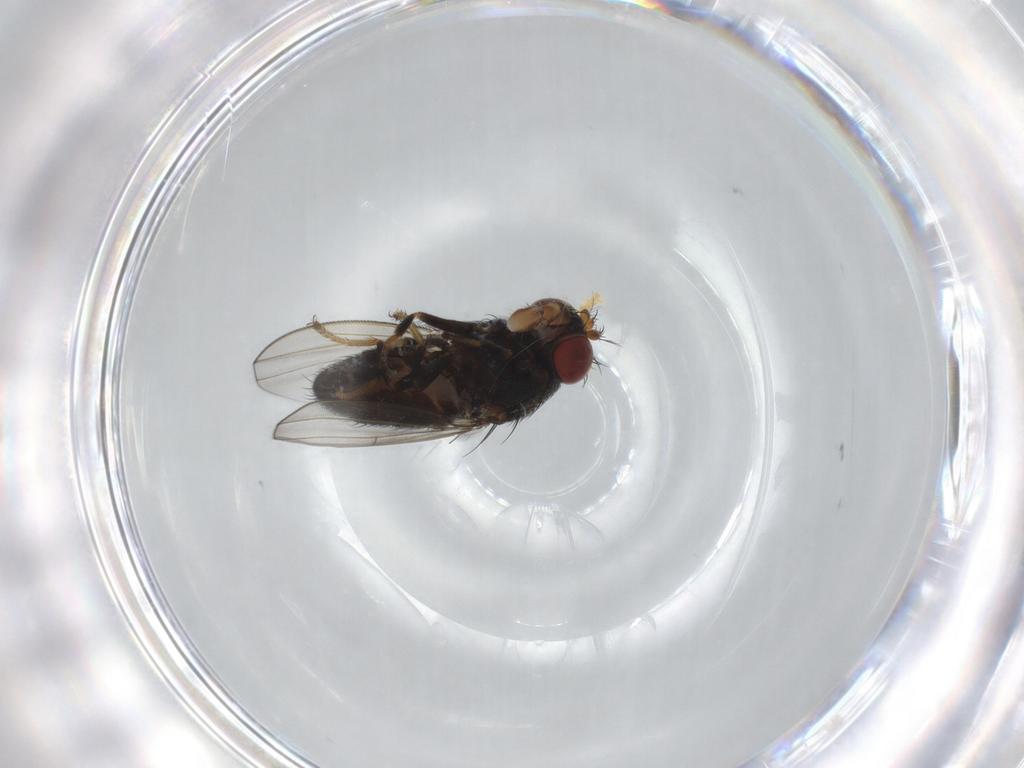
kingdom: Animalia
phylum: Arthropoda
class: Insecta
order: Diptera
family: Ephydridae
